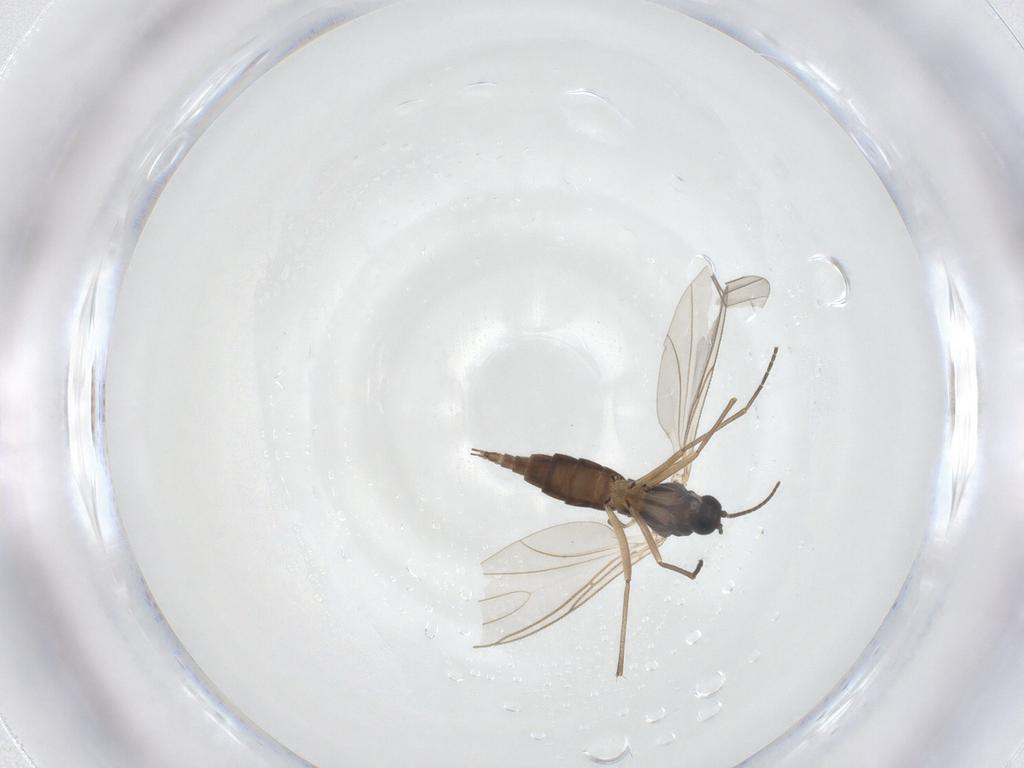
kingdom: Animalia
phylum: Arthropoda
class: Insecta
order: Diptera
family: Sciaridae
